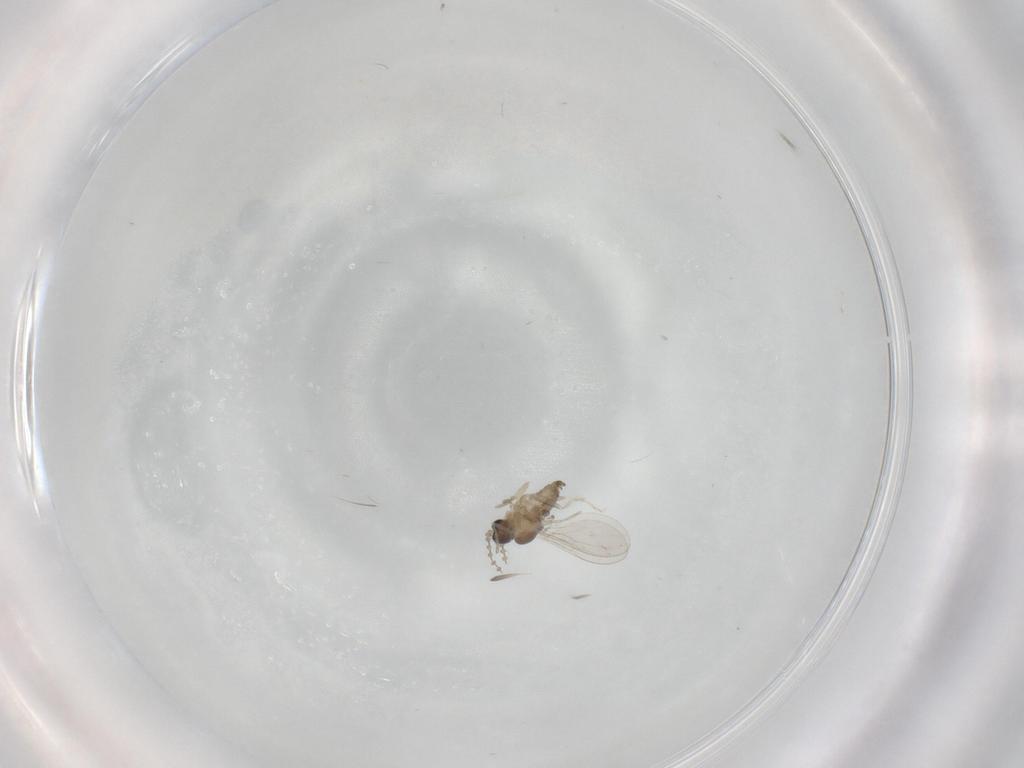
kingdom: Animalia
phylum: Arthropoda
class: Insecta
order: Diptera
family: Cecidomyiidae
